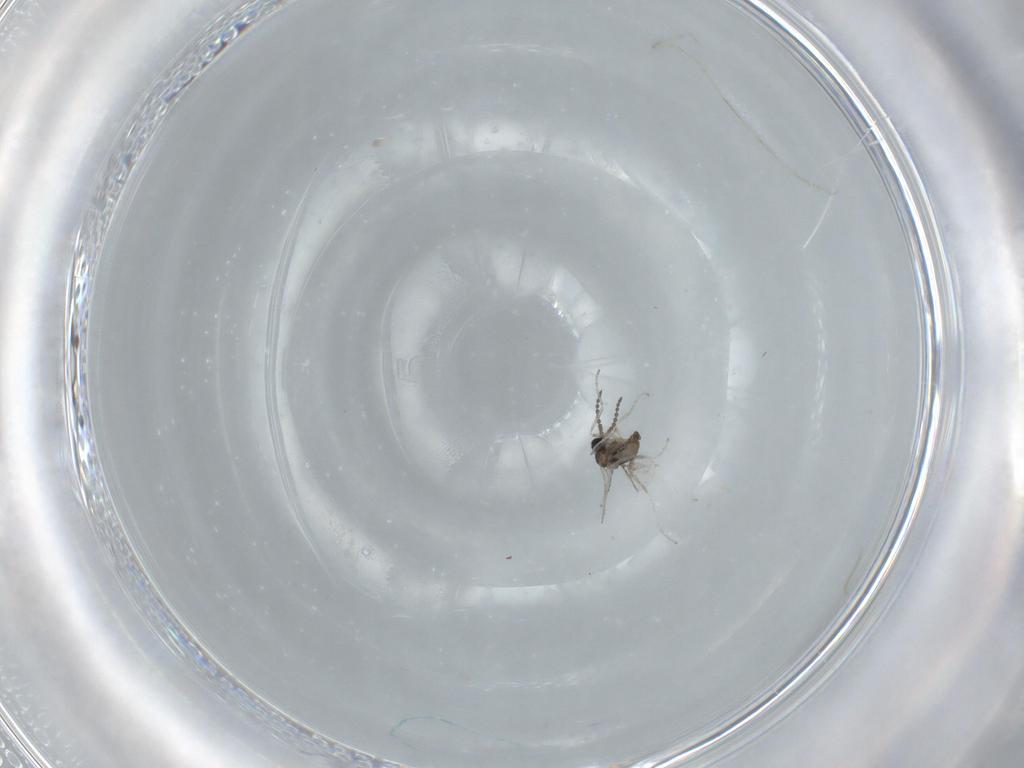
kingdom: Animalia
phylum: Arthropoda
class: Insecta
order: Diptera
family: Cecidomyiidae
